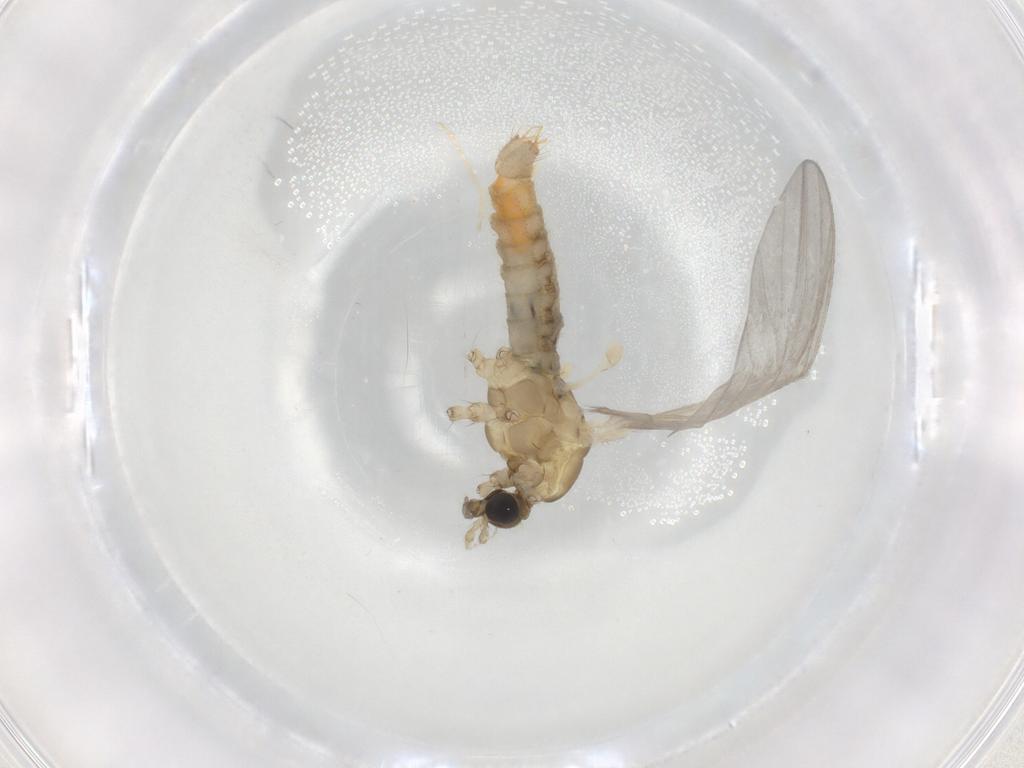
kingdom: Animalia
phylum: Arthropoda
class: Insecta
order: Diptera
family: Limoniidae
